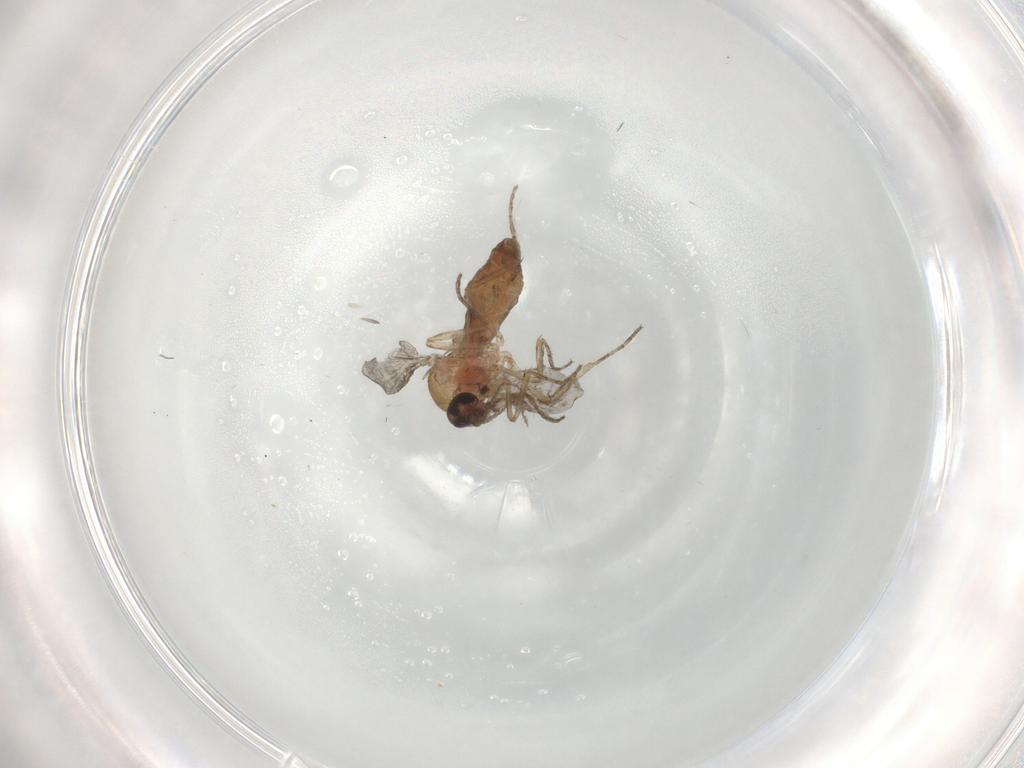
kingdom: Animalia
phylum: Arthropoda
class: Insecta
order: Diptera
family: Ceratopogonidae
